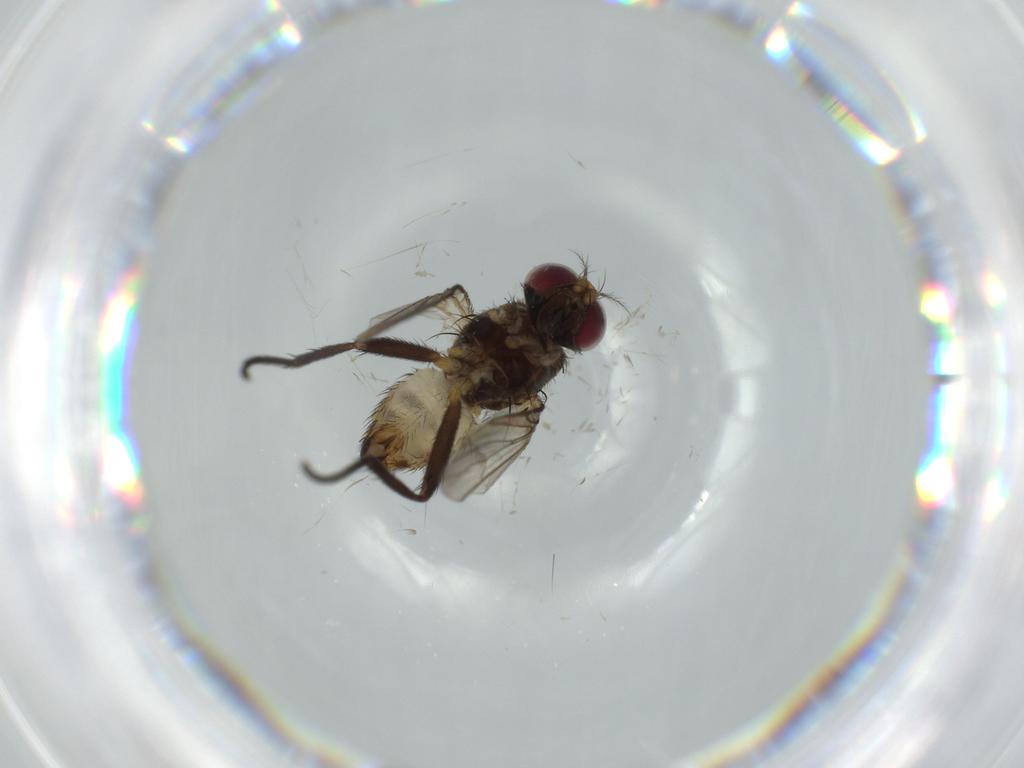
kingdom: Animalia
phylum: Arthropoda
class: Insecta
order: Diptera
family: Anthomyiidae
